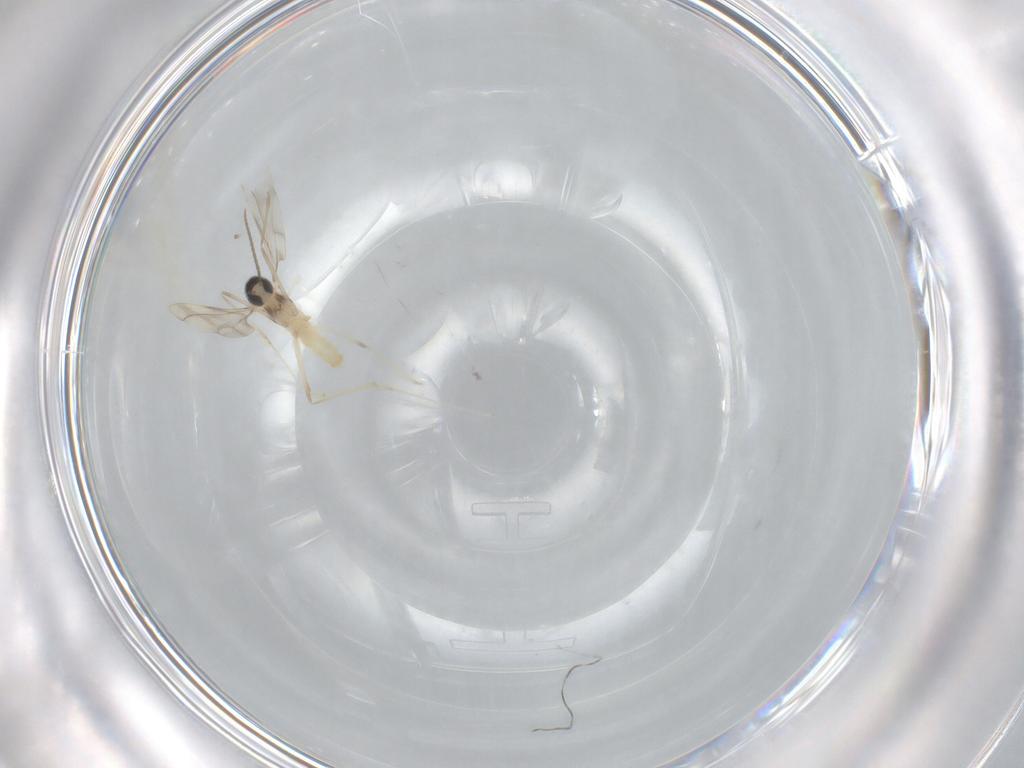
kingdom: Animalia
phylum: Arthropoda
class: Insecta
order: Diptera
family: Cecidomyiidae
